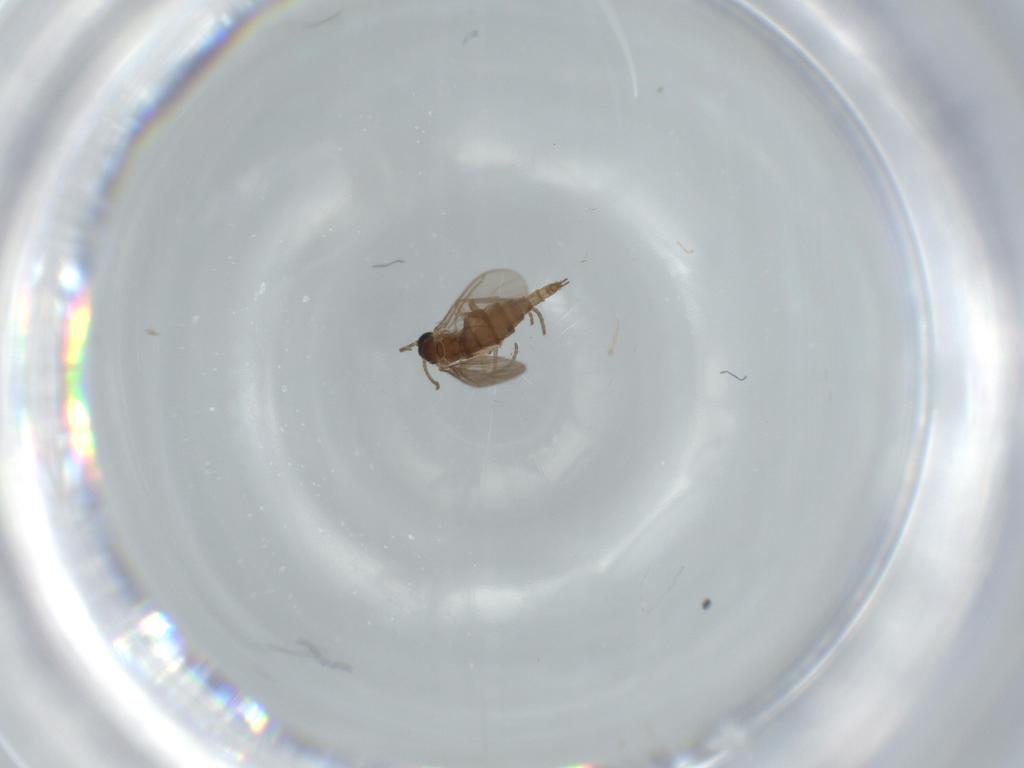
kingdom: Animalia
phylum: Arthropoda
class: Insecta
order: Diptera
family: Sciaridae
